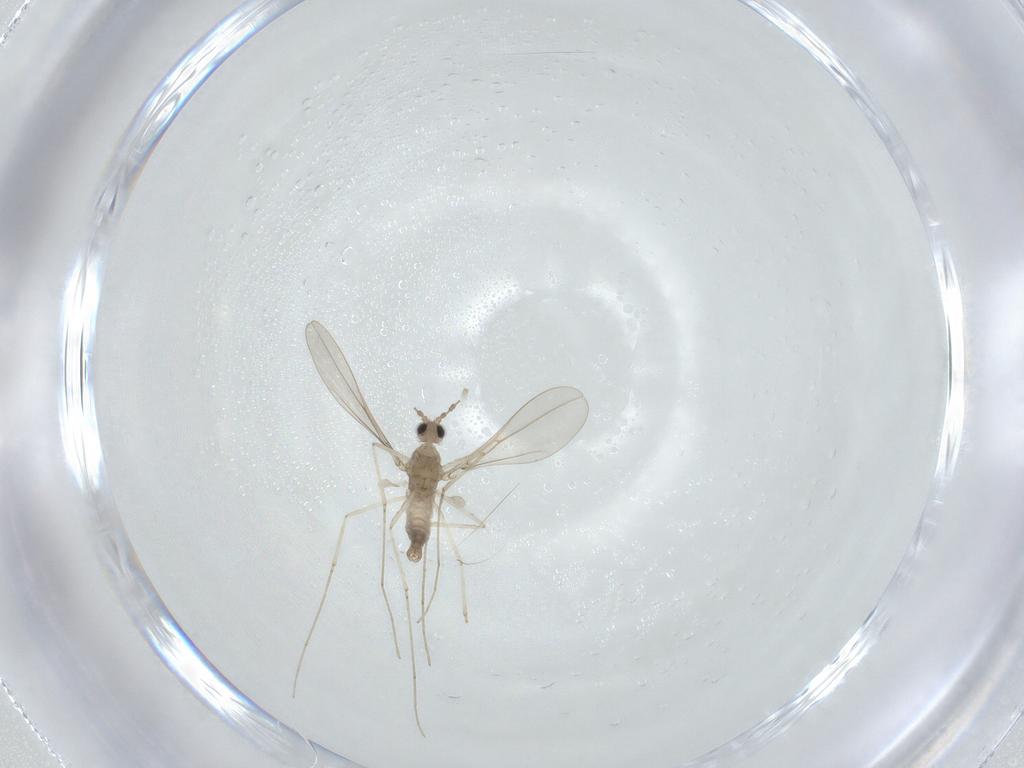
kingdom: Animalia
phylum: Arthropoda
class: Insecta
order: Diptera
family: Cecidomyiidae
